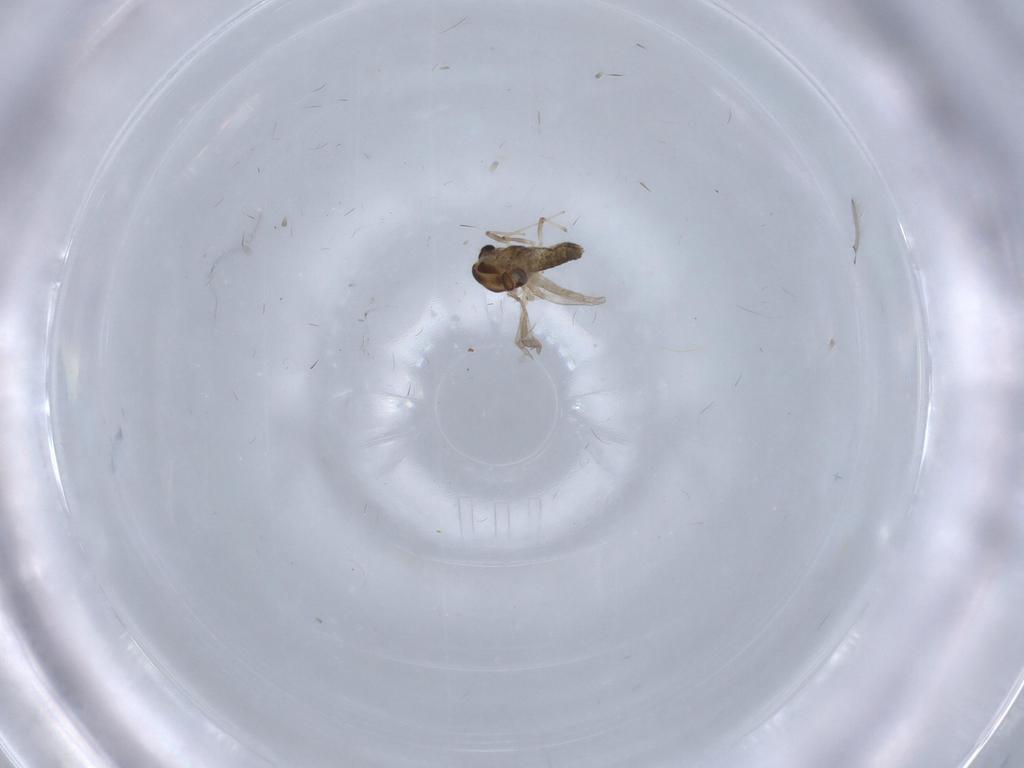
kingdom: Animalia
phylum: Arthropoda
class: Insecta
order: Diptera
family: Chironomidae
